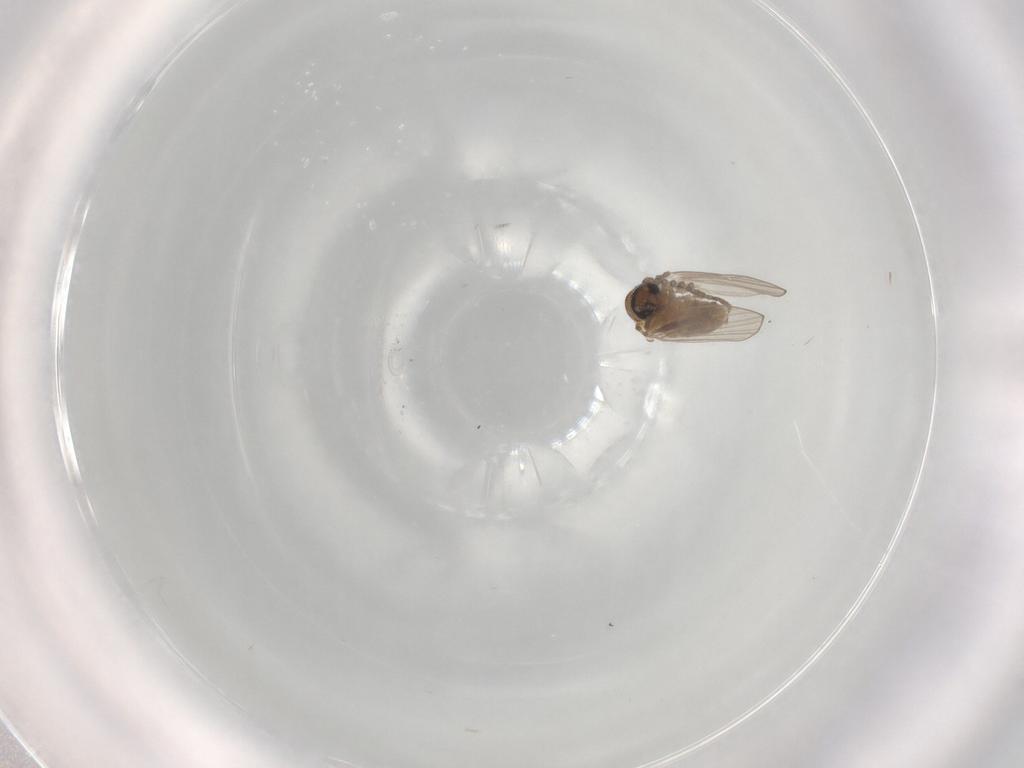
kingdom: Animalia
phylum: Arthropoda
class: Insecta
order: Diptera
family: Psychodidae
